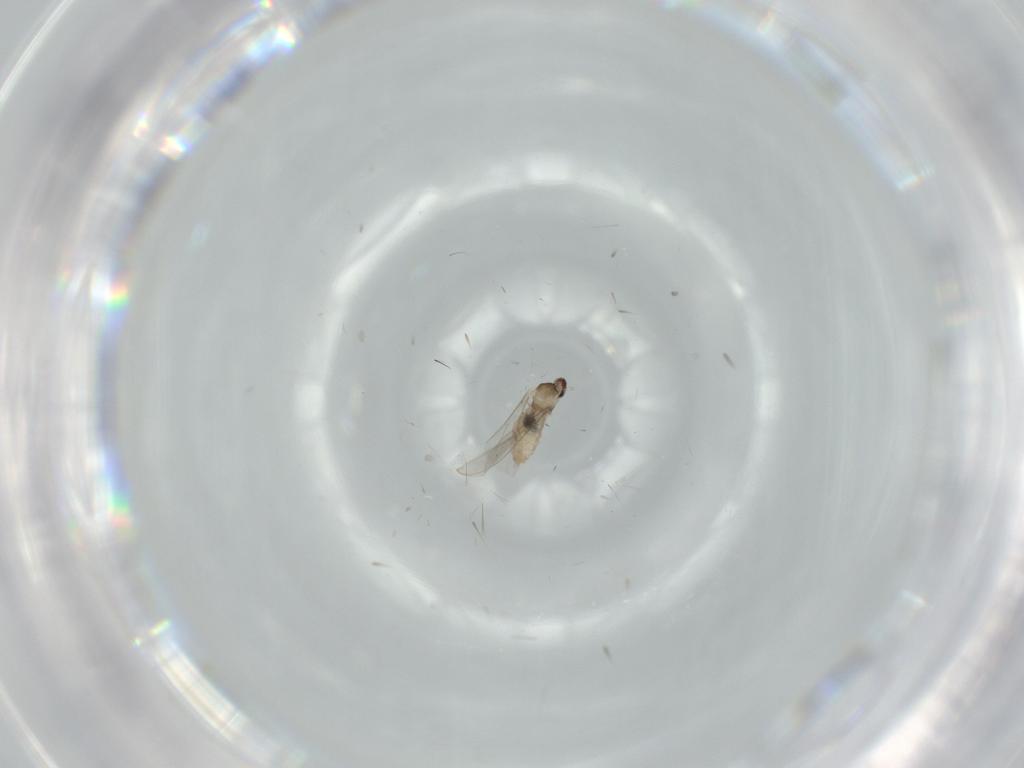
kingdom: Animalia
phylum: Arthropoda
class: Insecta
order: Diptera
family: Cecidomyiidae
